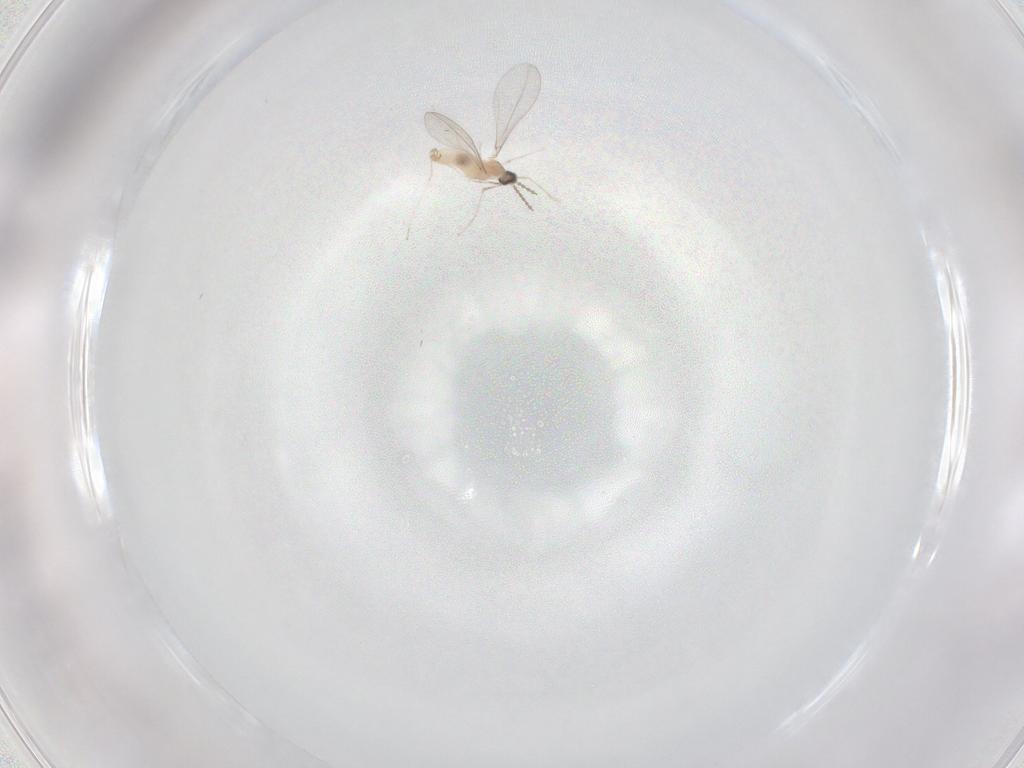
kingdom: Animalia
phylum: Arthropoda
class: Insecta
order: Diptera
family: Cecidomyiidae
